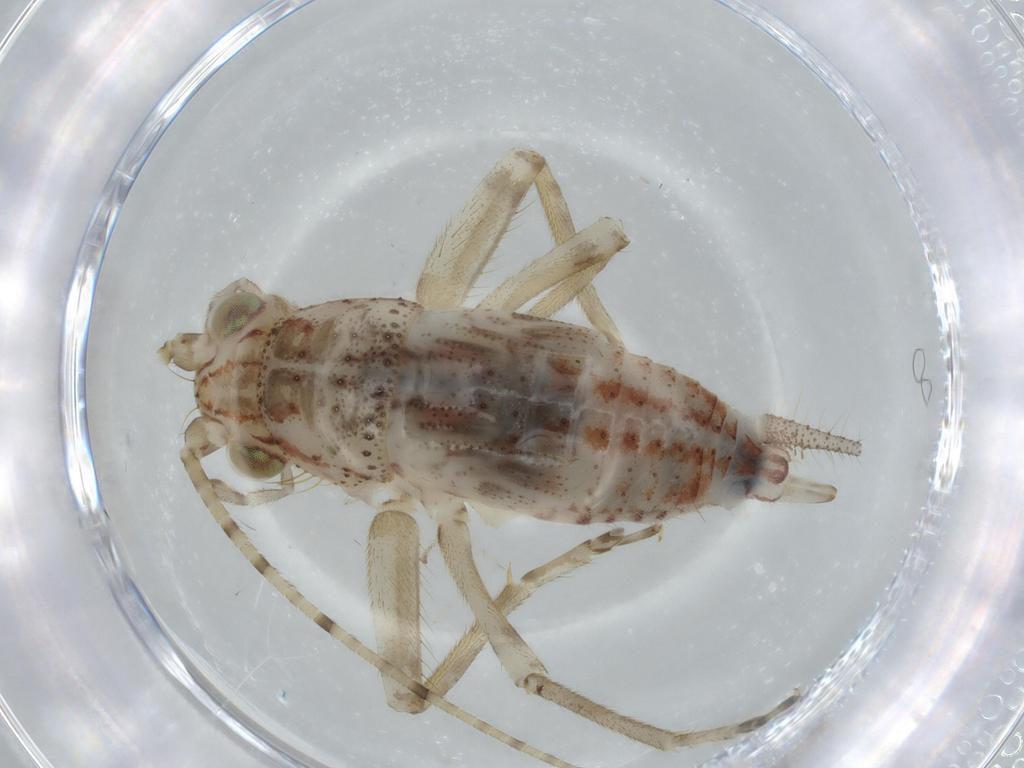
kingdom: Animalia
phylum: Arthropoda
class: Insecta
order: Orthoptera
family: Trigonidiidae
